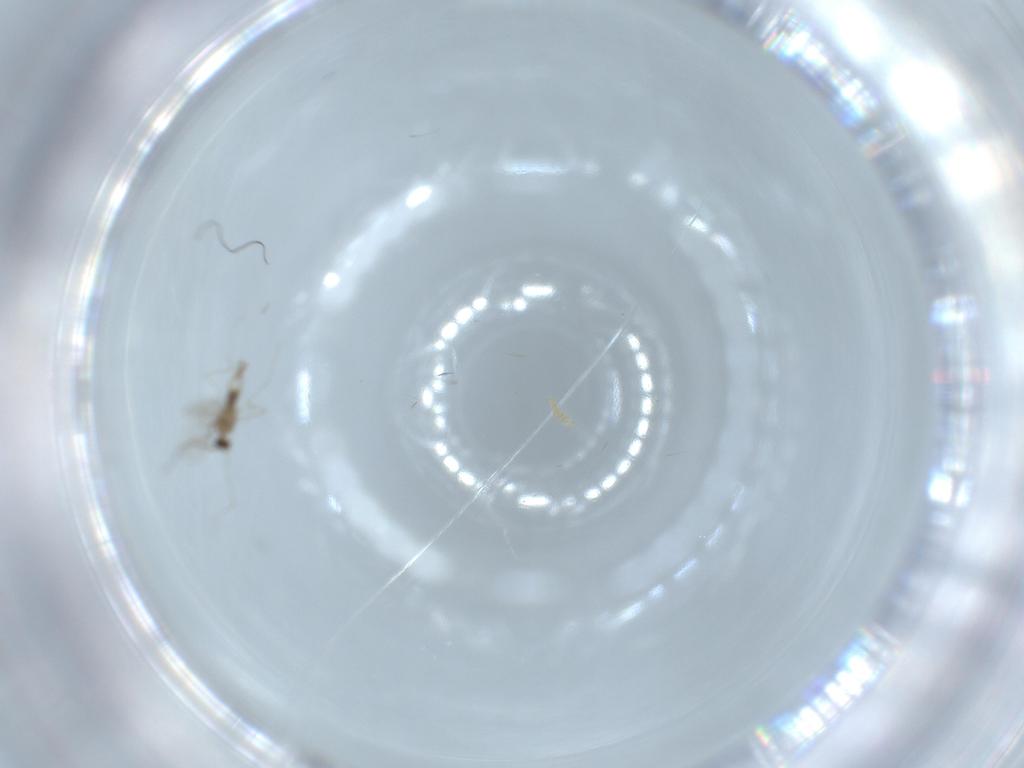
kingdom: Animalia
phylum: Arthropoda
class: Insecta
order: Diptera
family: Cecidomyiidae
